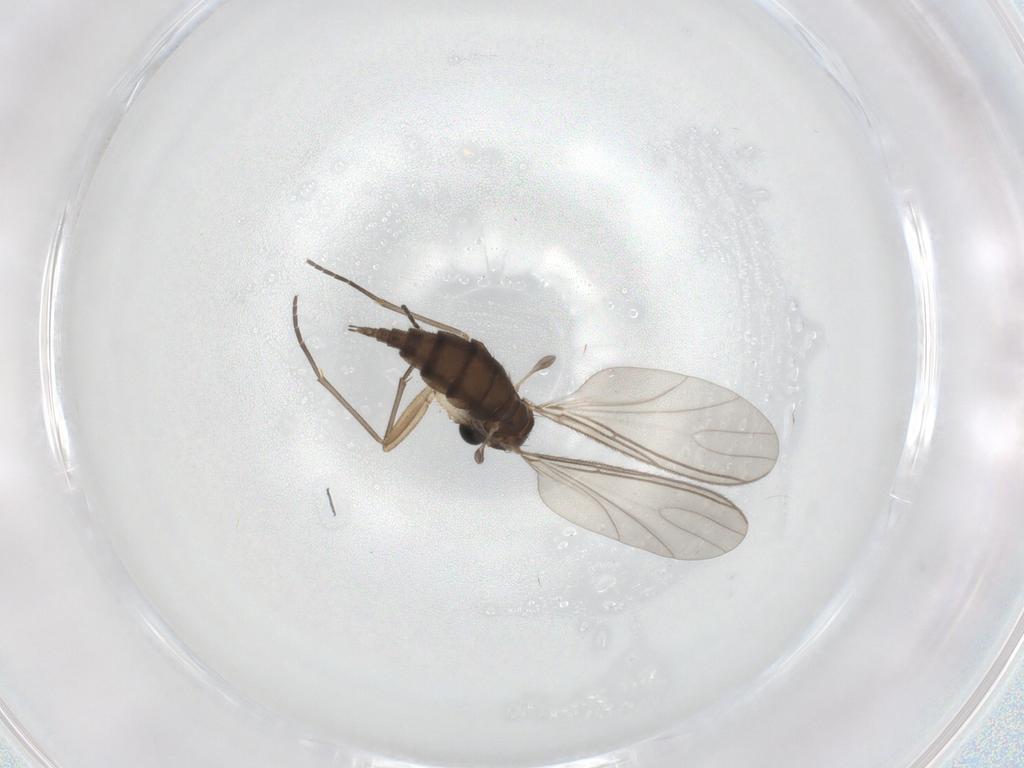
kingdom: Animalia
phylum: Arthropoda
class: Insecta
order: Diptera
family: Sciaridae
